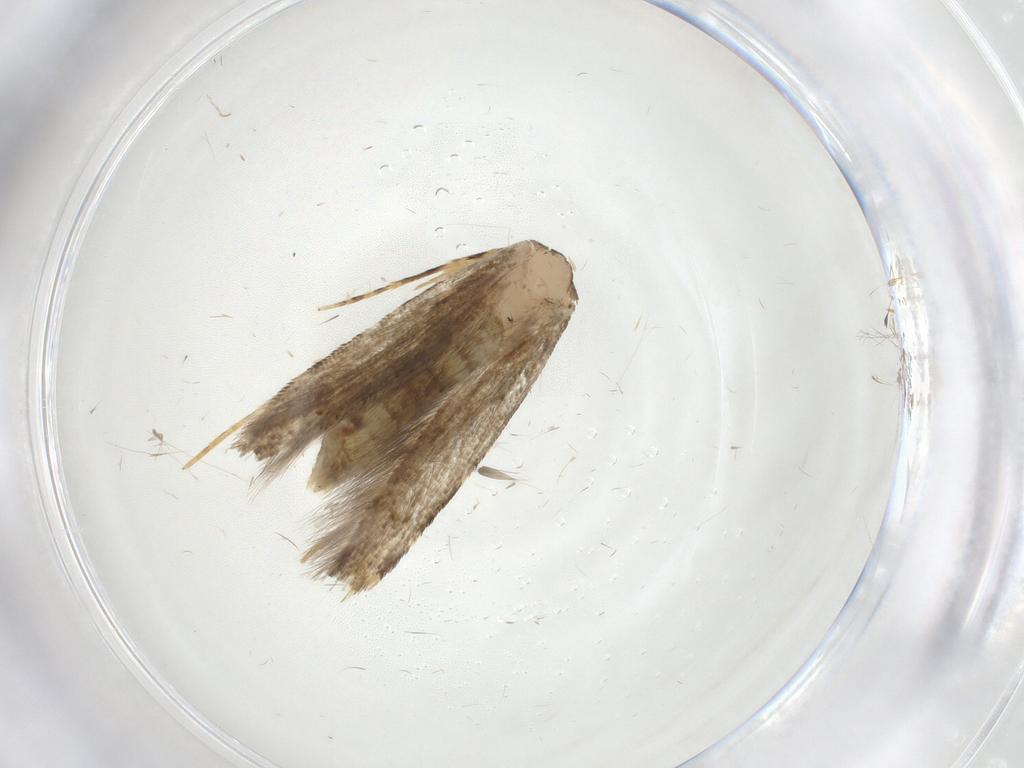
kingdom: Animalia
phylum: Arthropoda
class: Insecta
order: Lepidoptera
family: Tineidae
